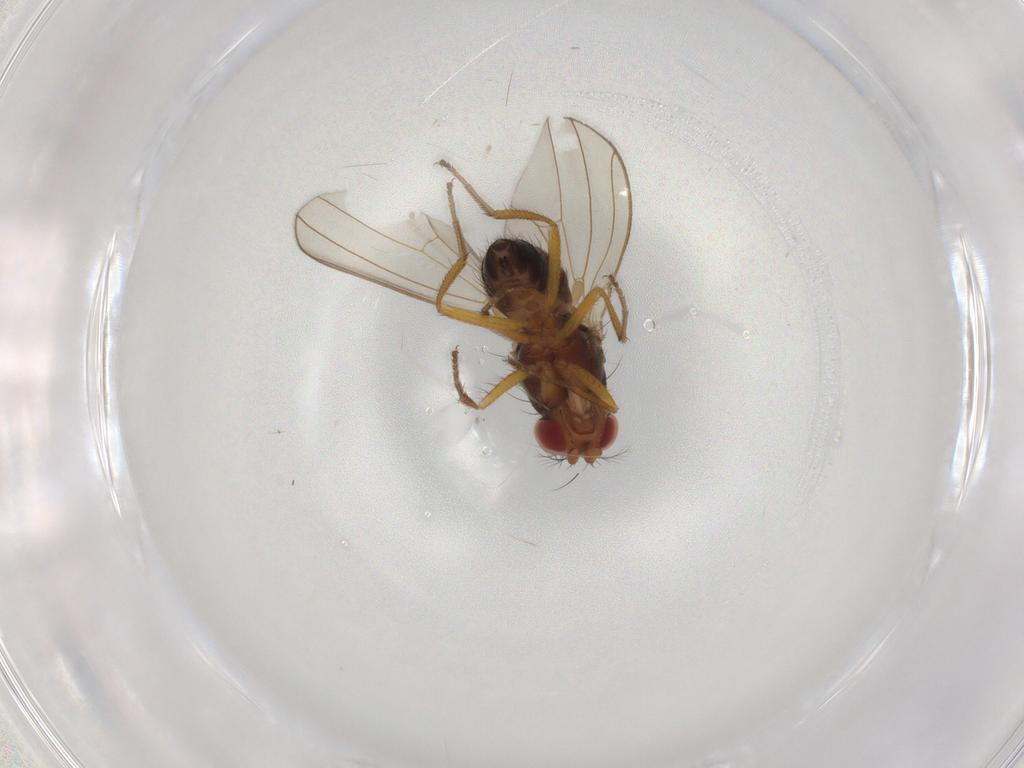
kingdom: Animalia
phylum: Arthropoda
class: Insecta
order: Diptera
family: Drosophilidae
